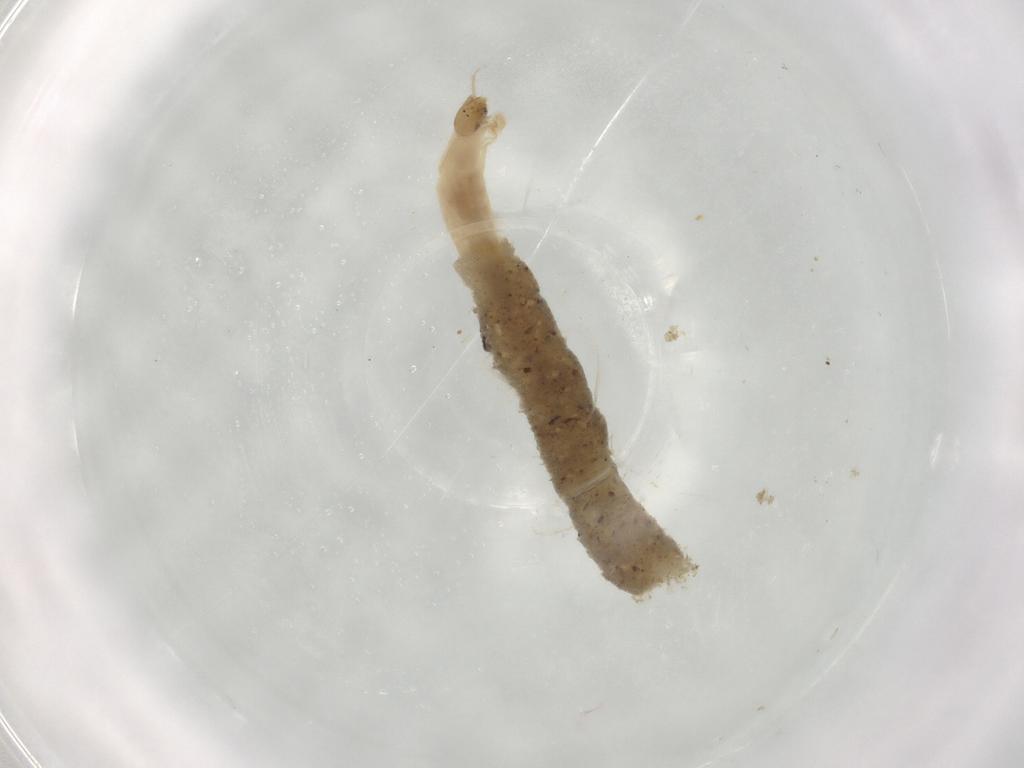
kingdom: Animalia
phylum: Arthropoda
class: Insecta
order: Diptera
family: Chironomidae
